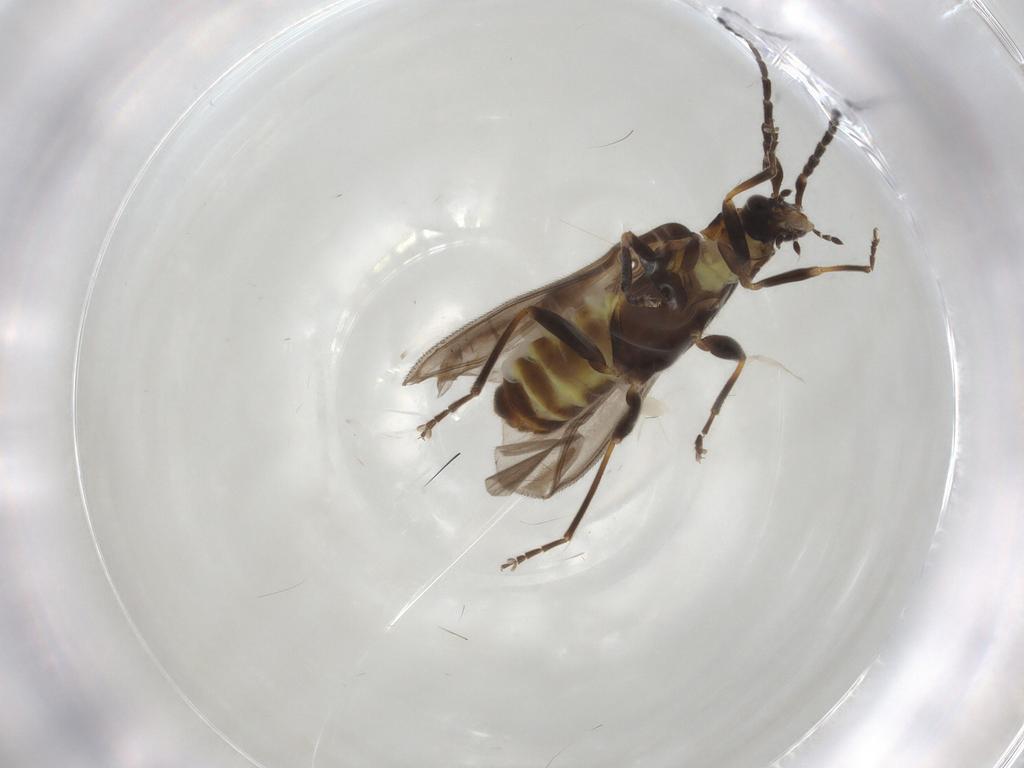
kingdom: Animalia
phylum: Arthropoda
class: Insecta
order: Coleoptera
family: Cantharidae
